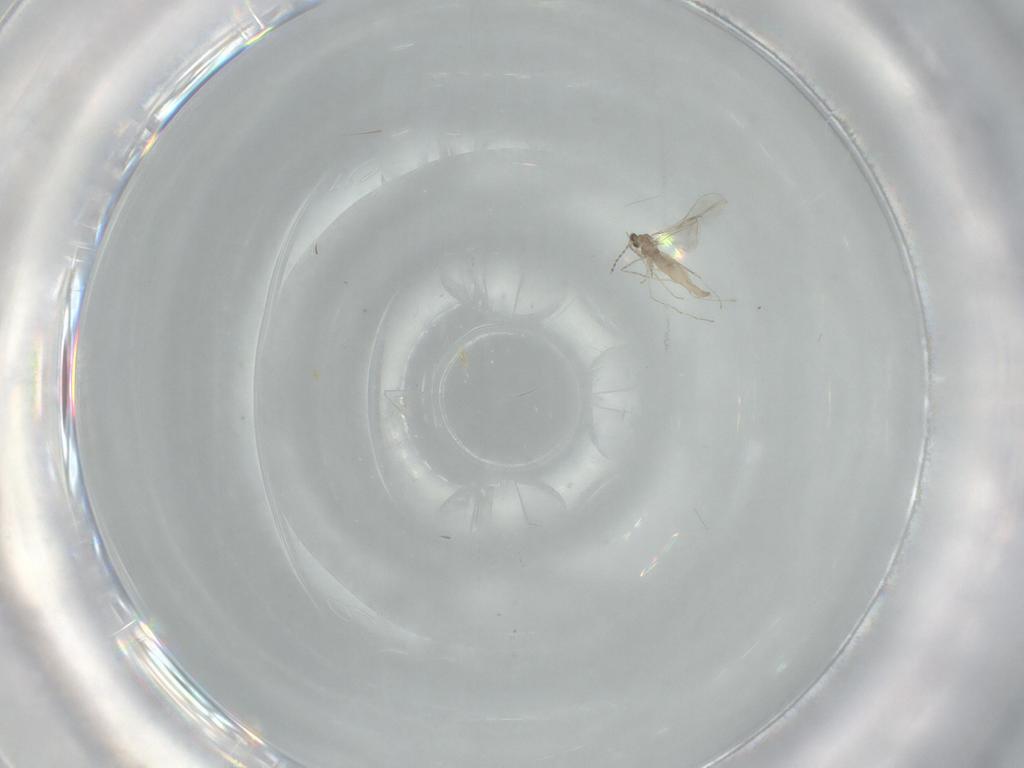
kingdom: Animalia
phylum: Arthropoda
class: Insecta
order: Diptera
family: Cecidomyiidae
